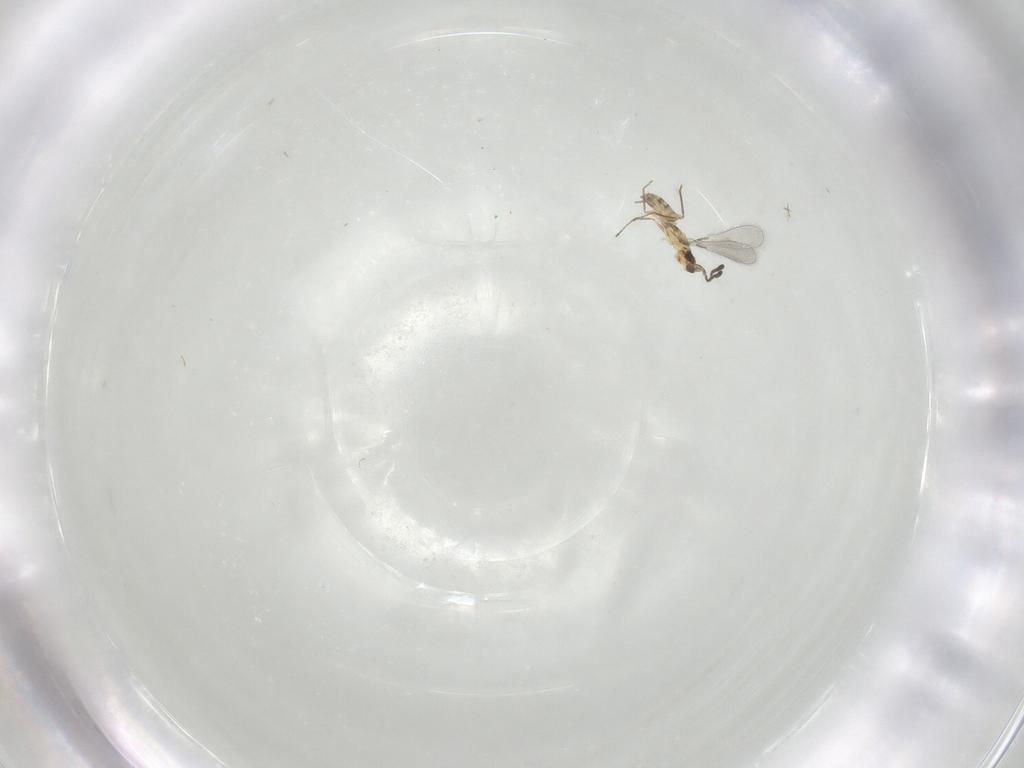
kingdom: Animalia
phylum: Arthropoda
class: Insecta
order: Hymenoptera
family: Mymaridae
